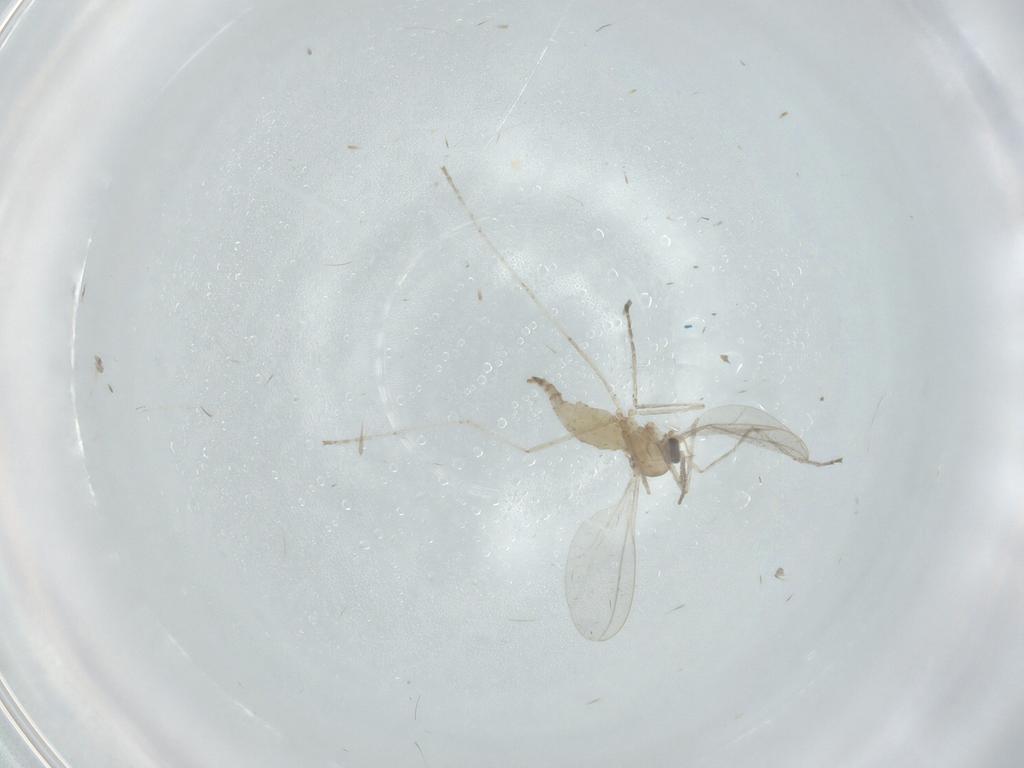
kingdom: Animalia
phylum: Arthropoda
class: Insecta
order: Diptera
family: Cecidomyiidae
